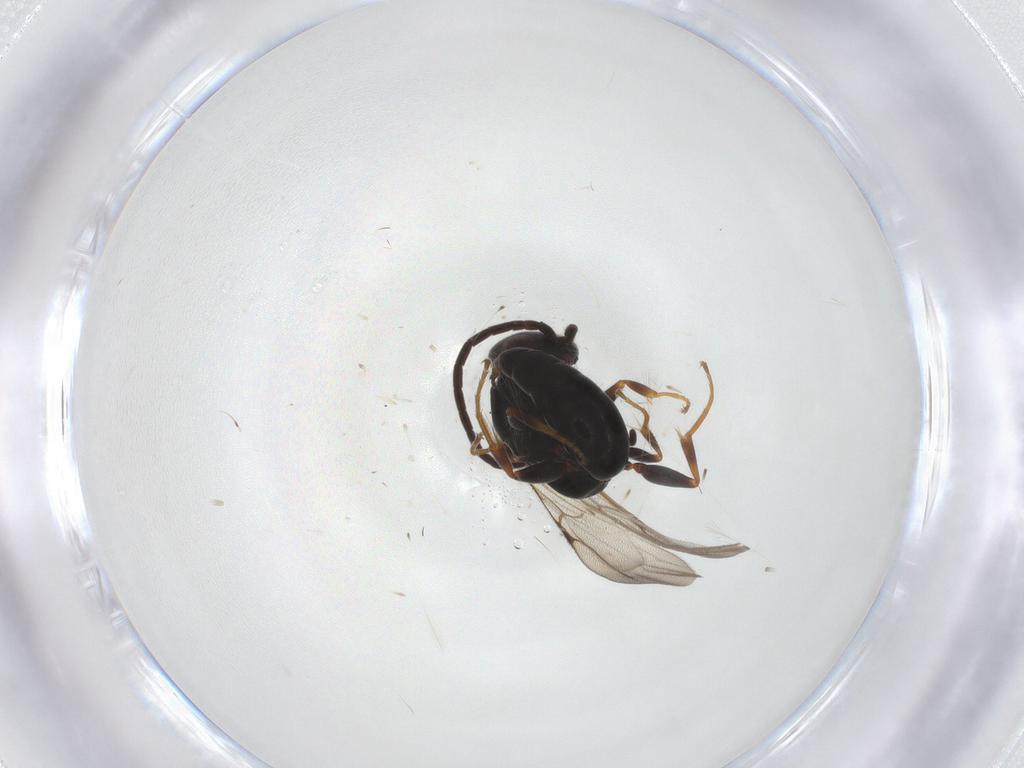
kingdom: Animalia
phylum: Arthropoda
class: Insecta
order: Hymenoptera
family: Bethylidae
